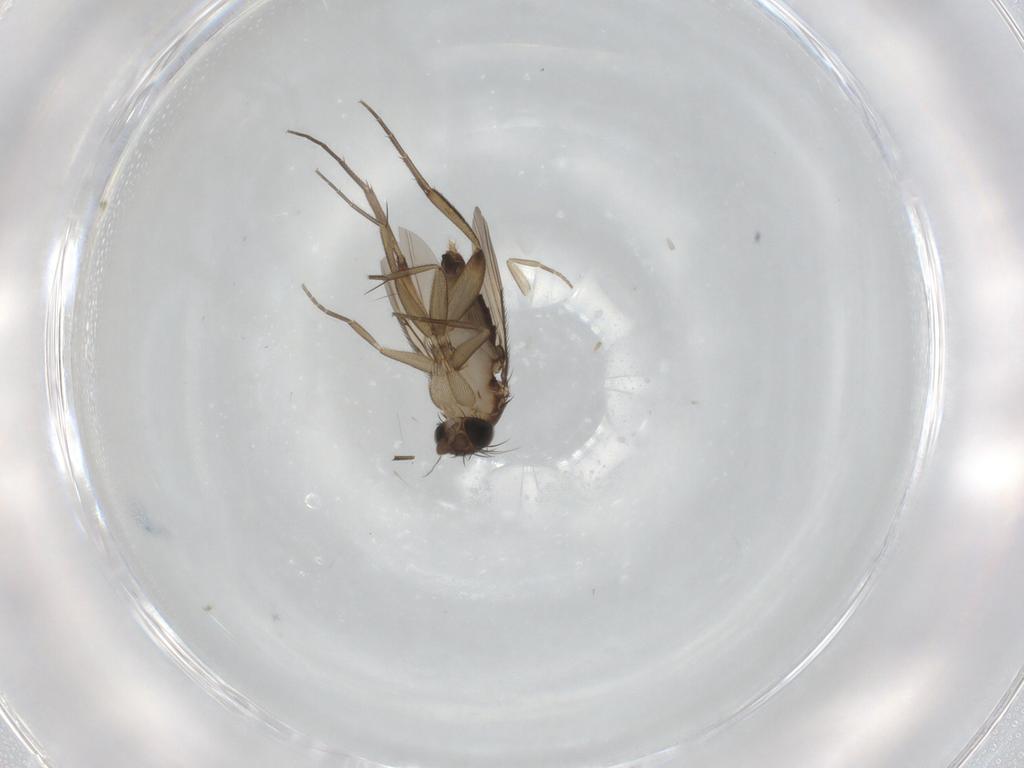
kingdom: Animalia
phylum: Arthropoda
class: Insecta
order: Diptera
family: Phoridae
